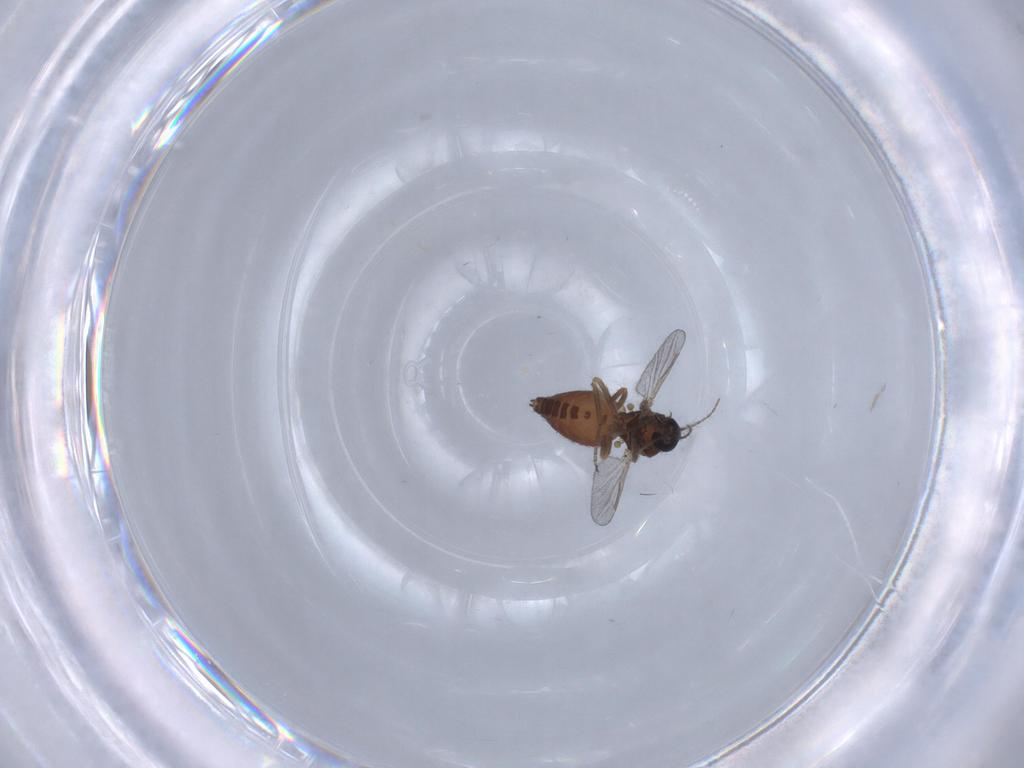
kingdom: Animalia
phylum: Arthropoda
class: Insecta
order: Diptera
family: Ceratopogonidae
